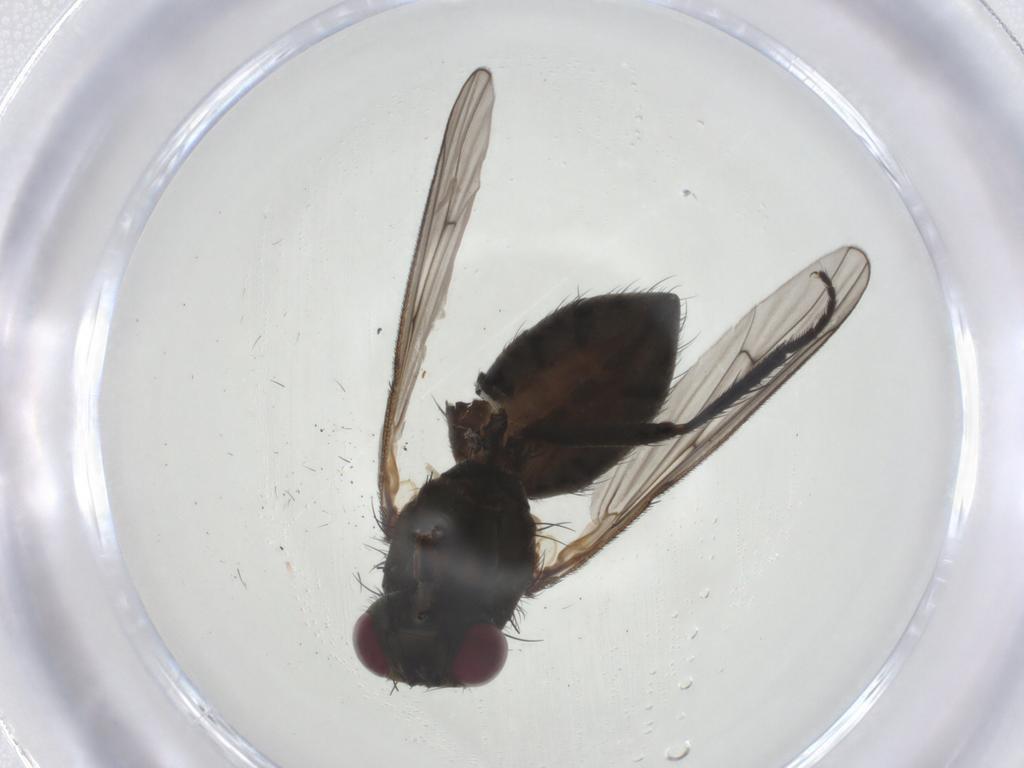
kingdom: Animalia
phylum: Arthropoda
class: Insecta
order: Diptera
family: Muscidae
